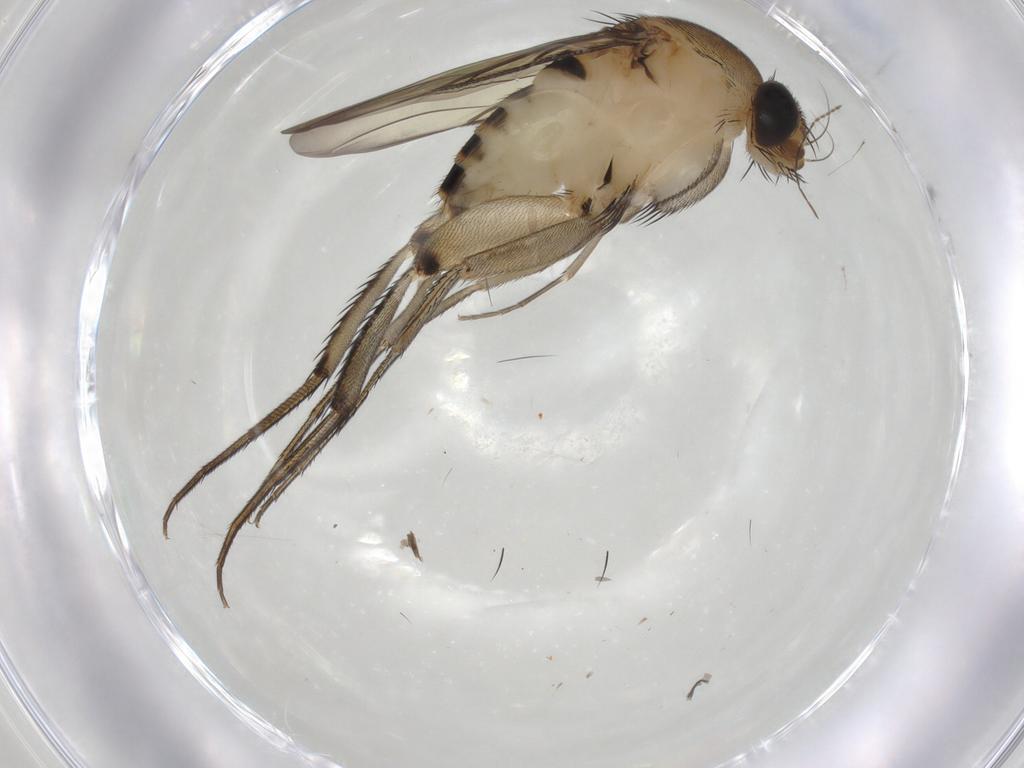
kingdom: Animalia
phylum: Arthropoda
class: Insecta
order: Diptera
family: Phoridae
